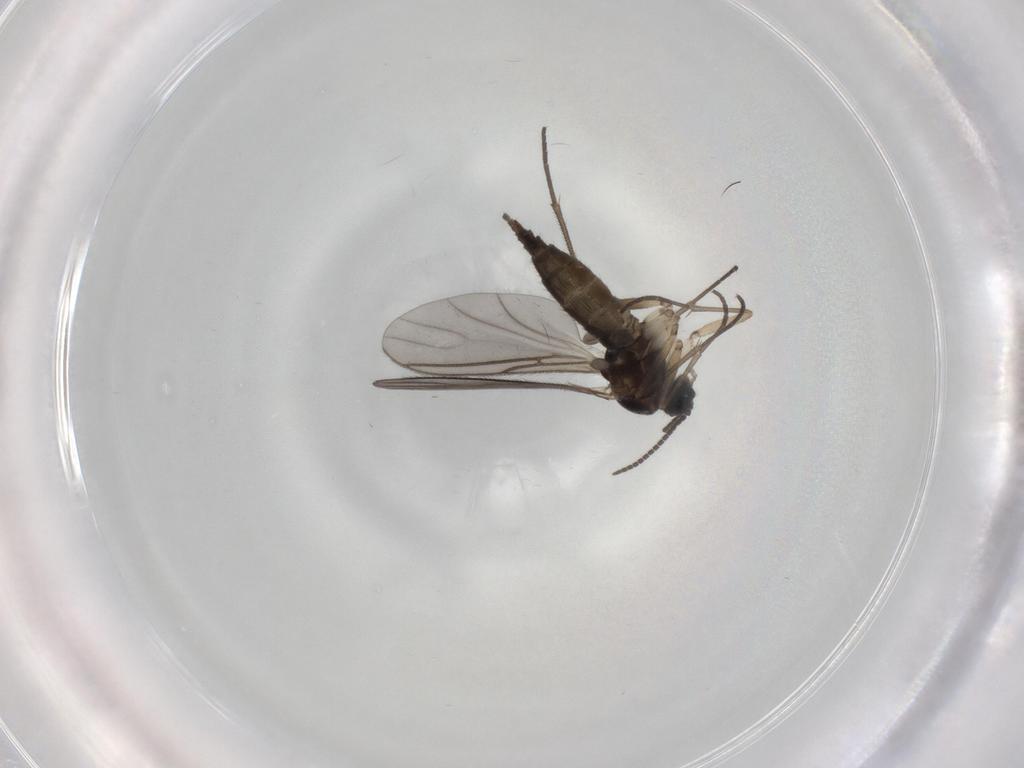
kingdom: Animalia
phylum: Arthropoda
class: Insecta
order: Diptera
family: Sciaridae
